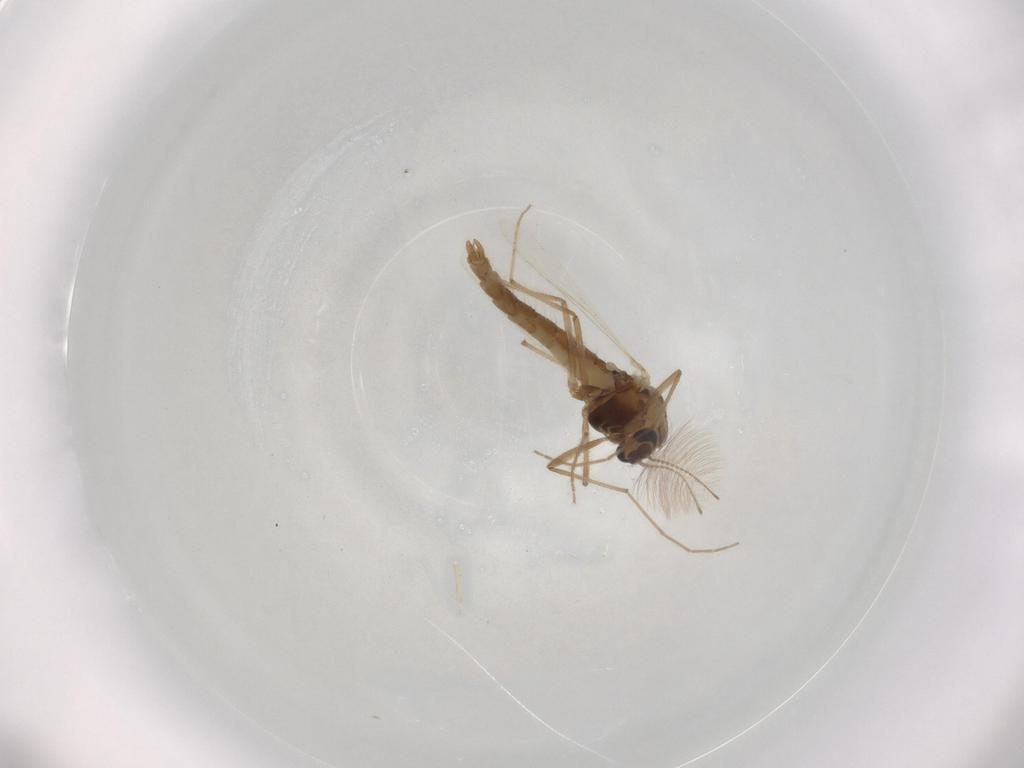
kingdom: Animalia
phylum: Arthropoda
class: Insecta
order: Diptera
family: Chironomidae
